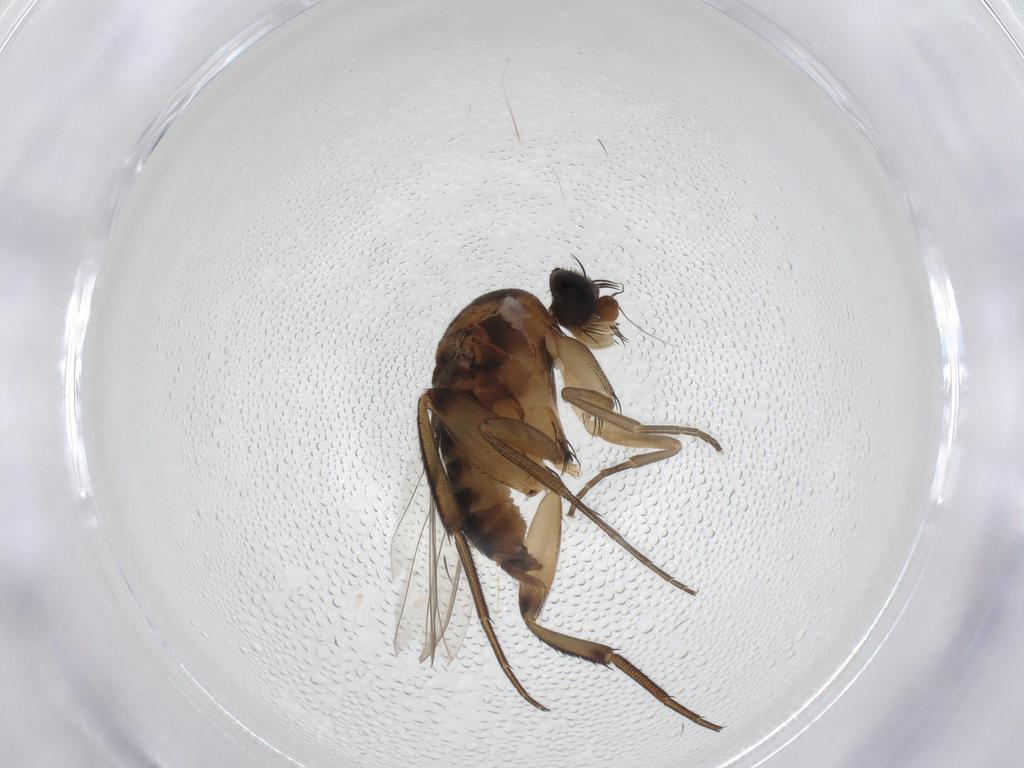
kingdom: Animalia
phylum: Arthropoda
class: Insecta
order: Diptera
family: Phoridae
